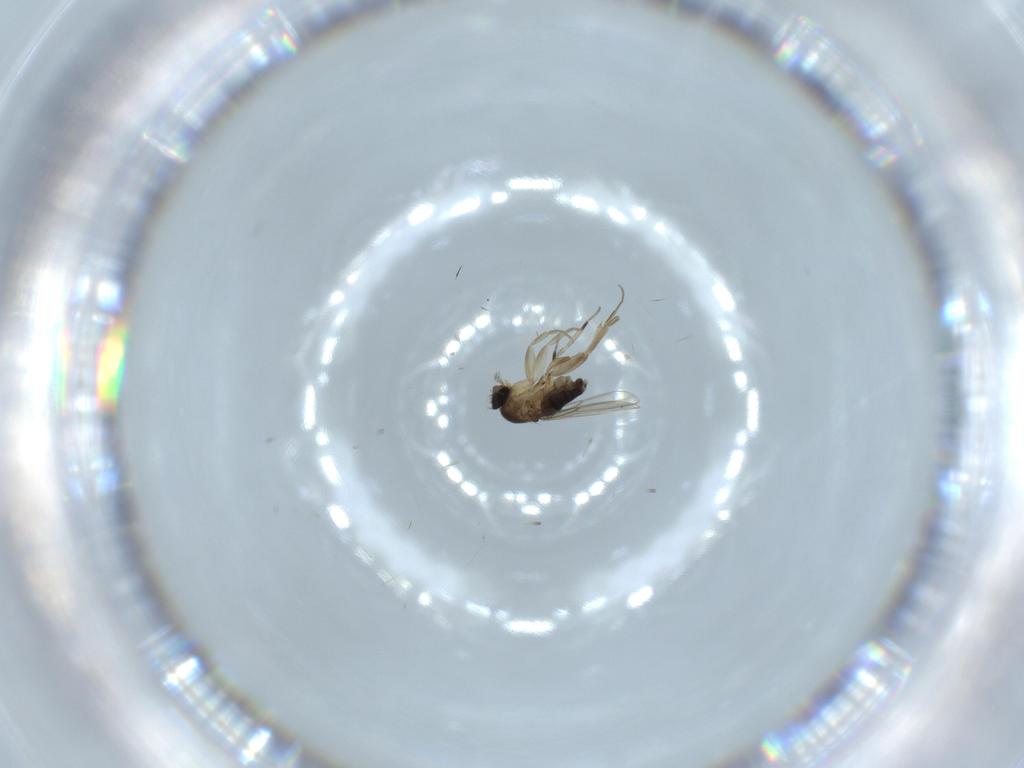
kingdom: Animalia
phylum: Arthropoda
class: Insecta
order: Diptera
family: Phoridae
